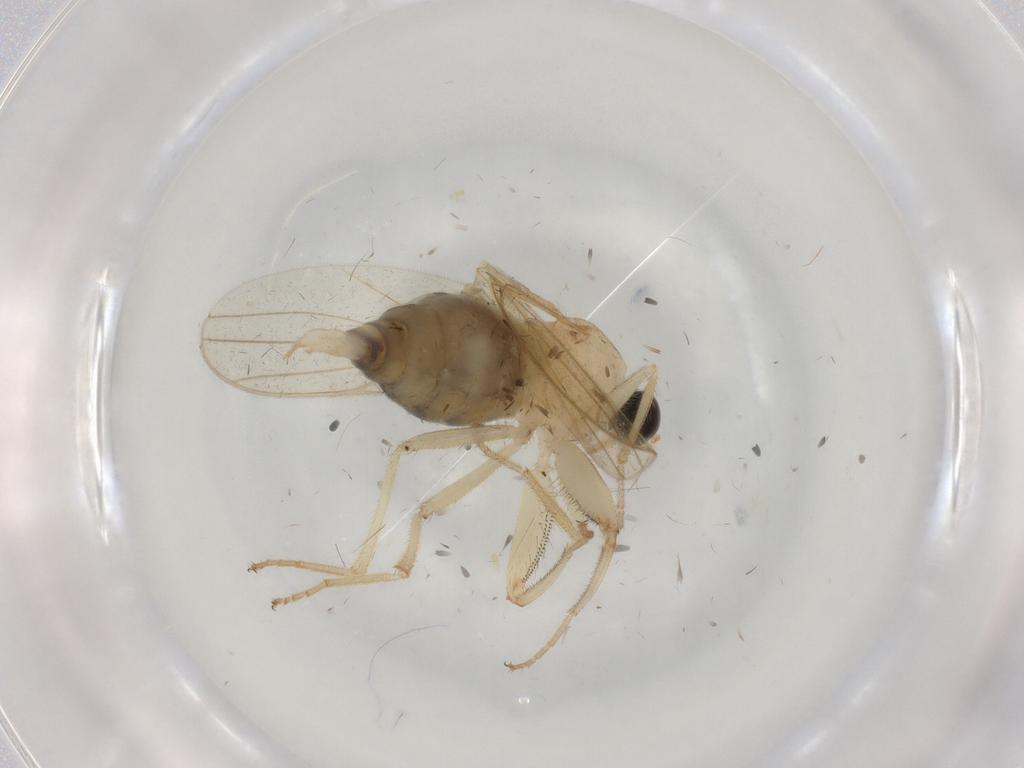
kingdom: Animalia
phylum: Arthropoda
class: Insecta
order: Diptera
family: Hybotidae
